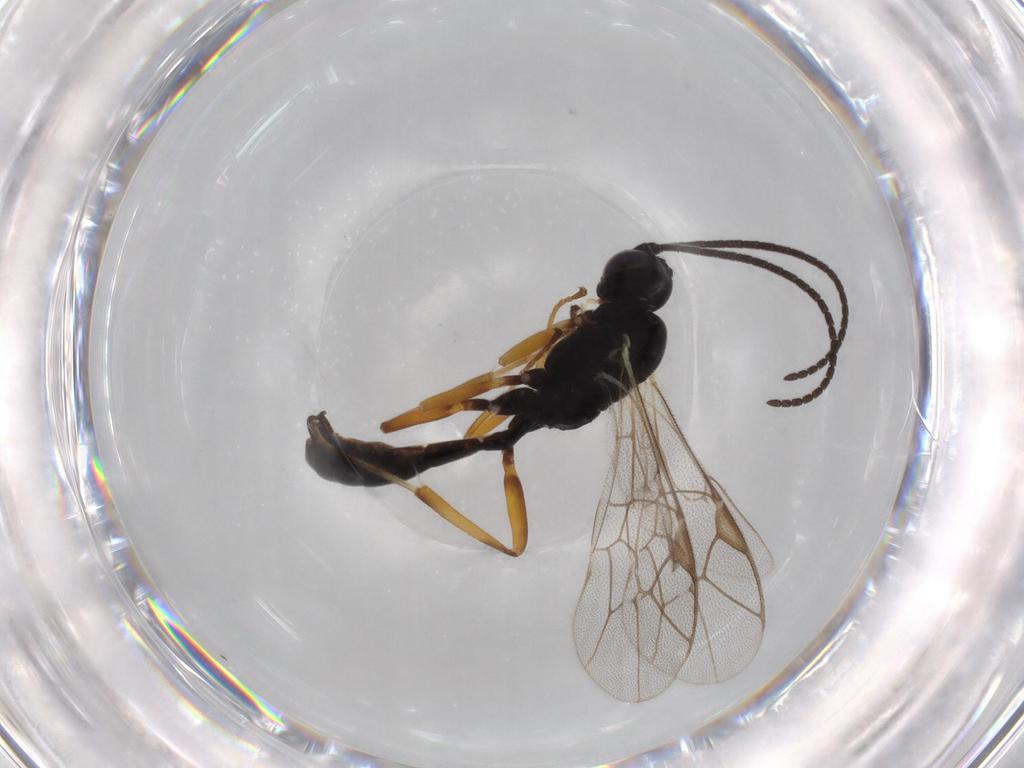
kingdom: Animalia
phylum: Arthropoda
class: Insecta
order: Hymenoptera
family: Ichneumonidae
